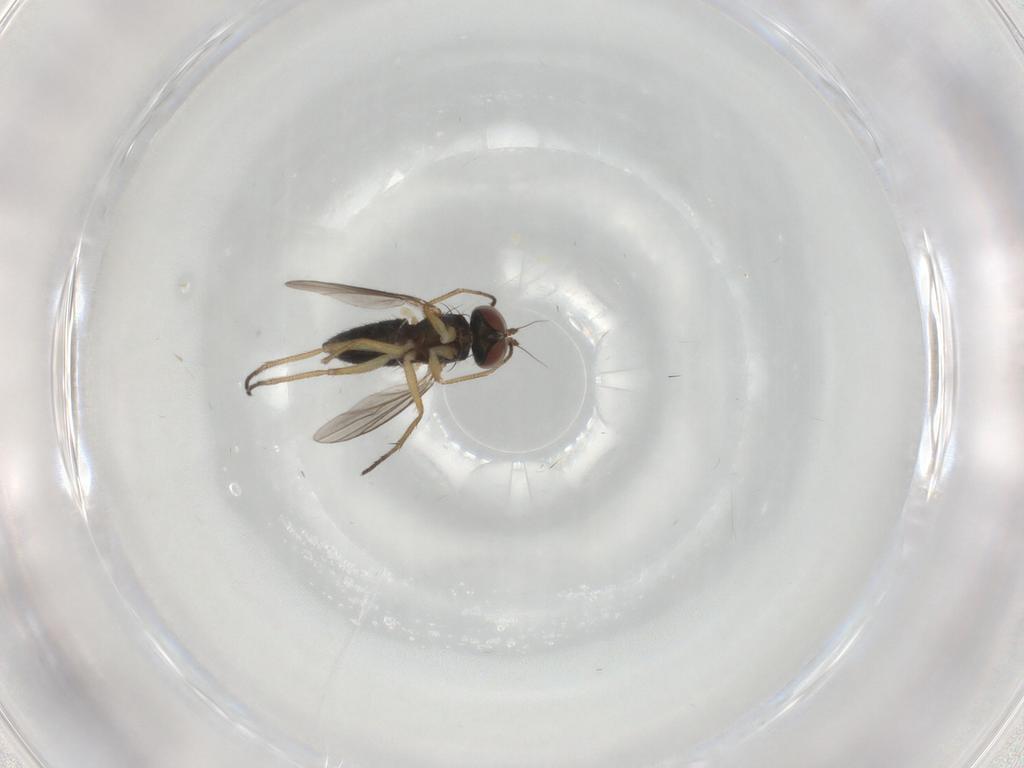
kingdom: Animalia
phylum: Arthropoda
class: Insecta
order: Diptera
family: Dolichopodidae
